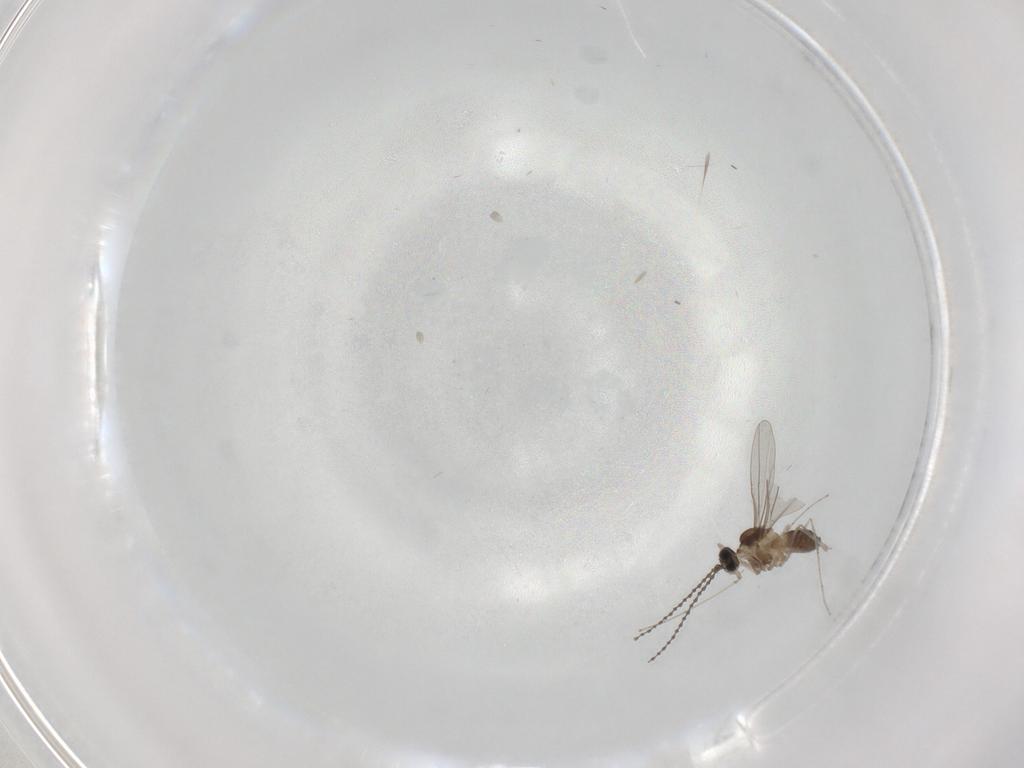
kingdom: Animalia
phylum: Arthropoda
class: Insecta
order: Diptera
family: Cecidomyiidae
